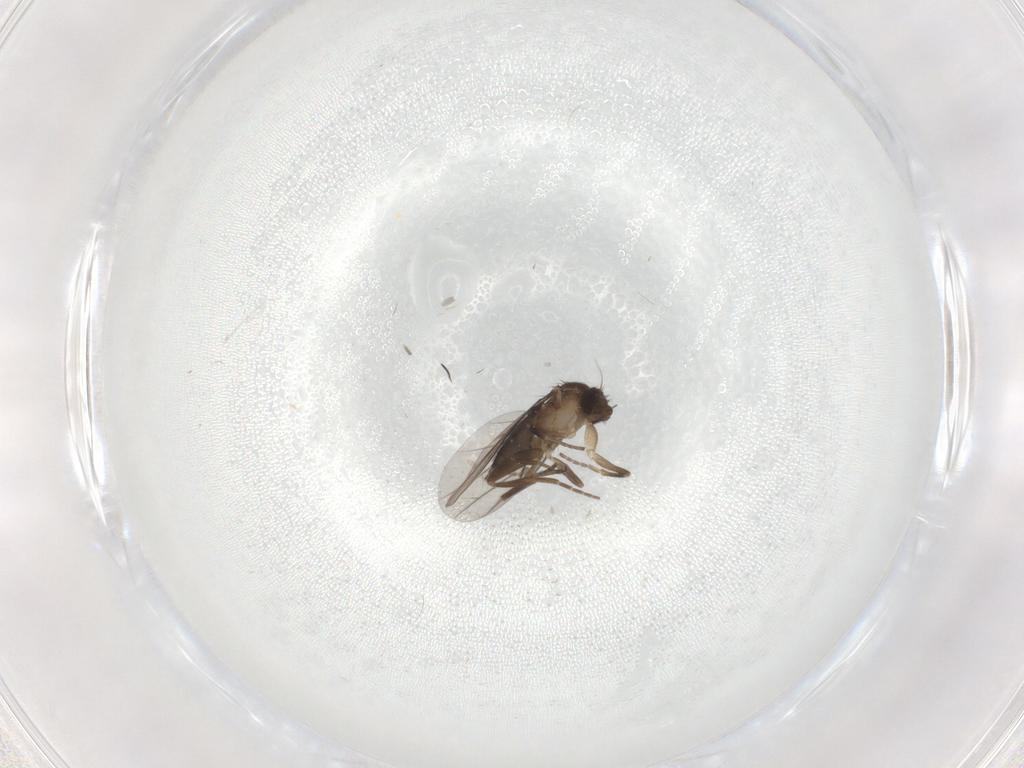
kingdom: Animalia
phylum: Arthropoda
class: Insecta
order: Diptera
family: Phoridae
